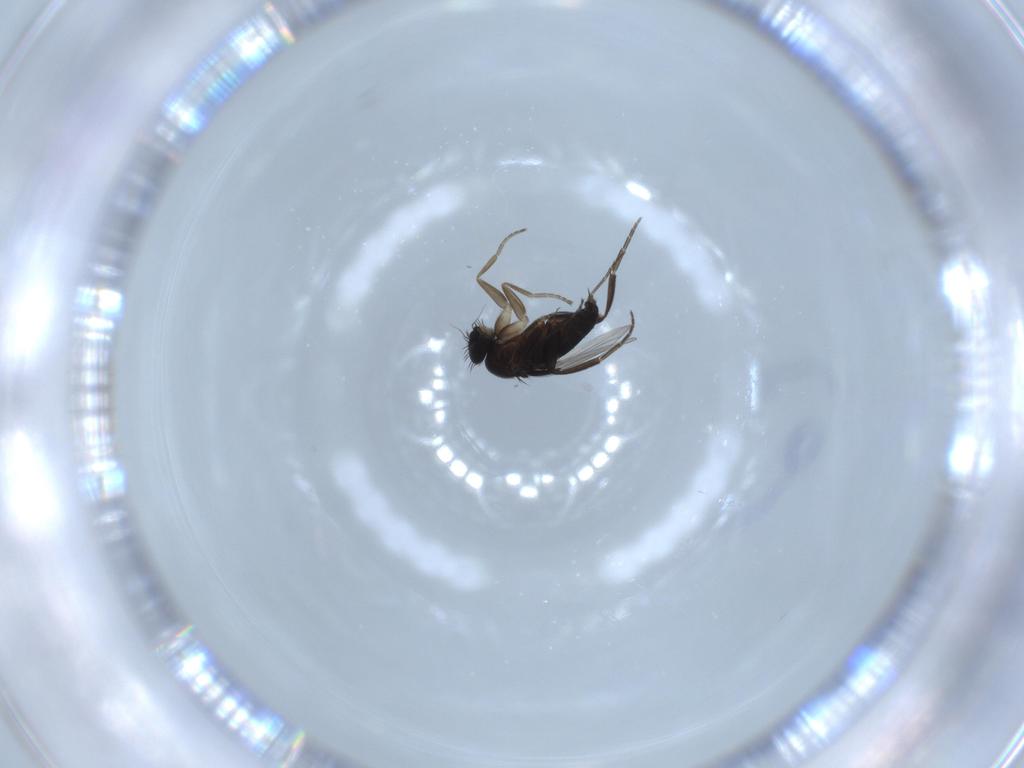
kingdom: Animalia
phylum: Arthropoda
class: Insecta
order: Diptera
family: Phoridae
